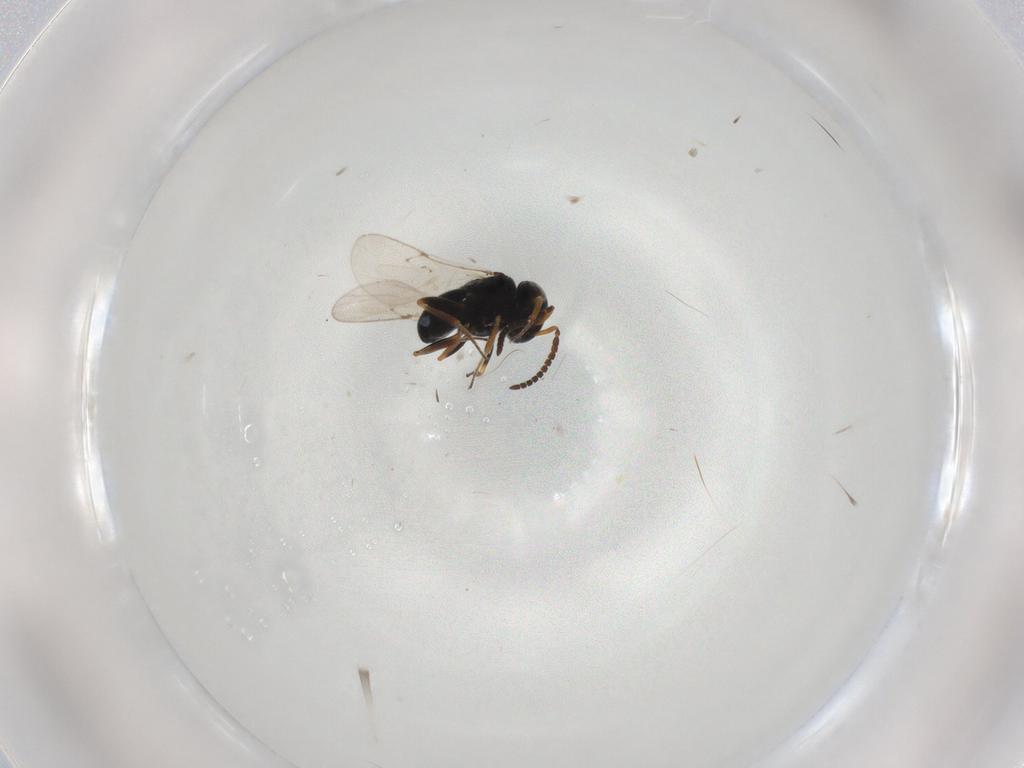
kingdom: Animalia
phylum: Arthropoda
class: Insecta
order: Coleoptera
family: Curculionidae
